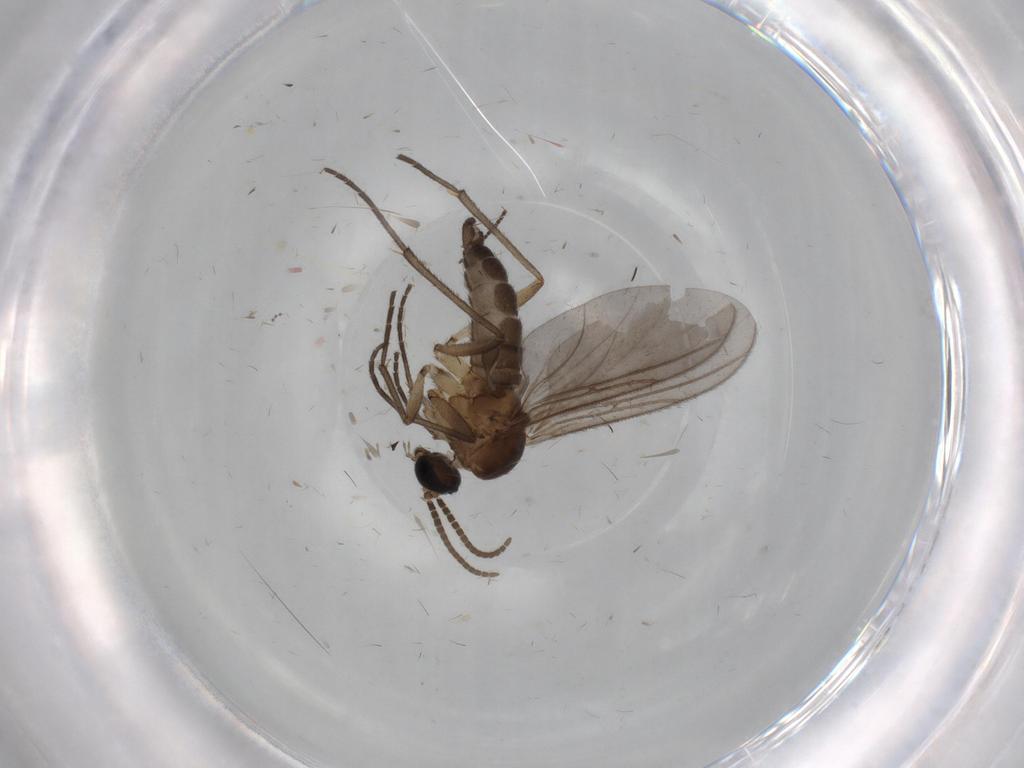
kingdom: Animalia
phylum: Arthropoda
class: Insecta
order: Diptera
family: Sciaridae
